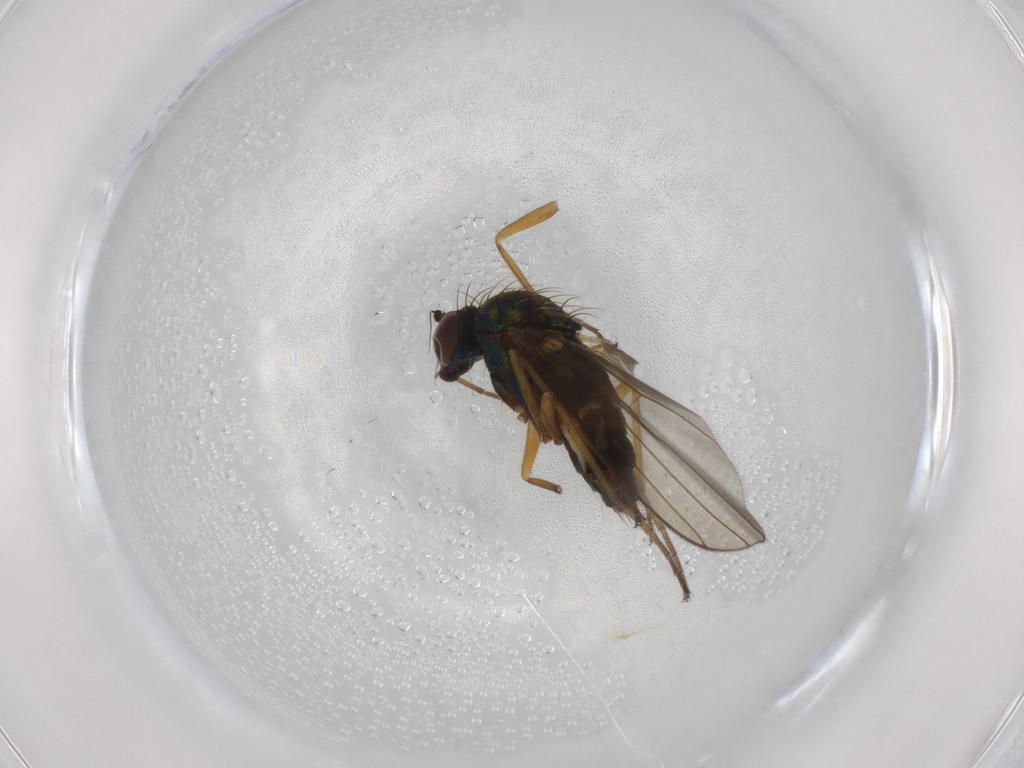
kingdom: Animalia
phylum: Arthropoda
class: Insecta
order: Diptera
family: Dolichopodidae
